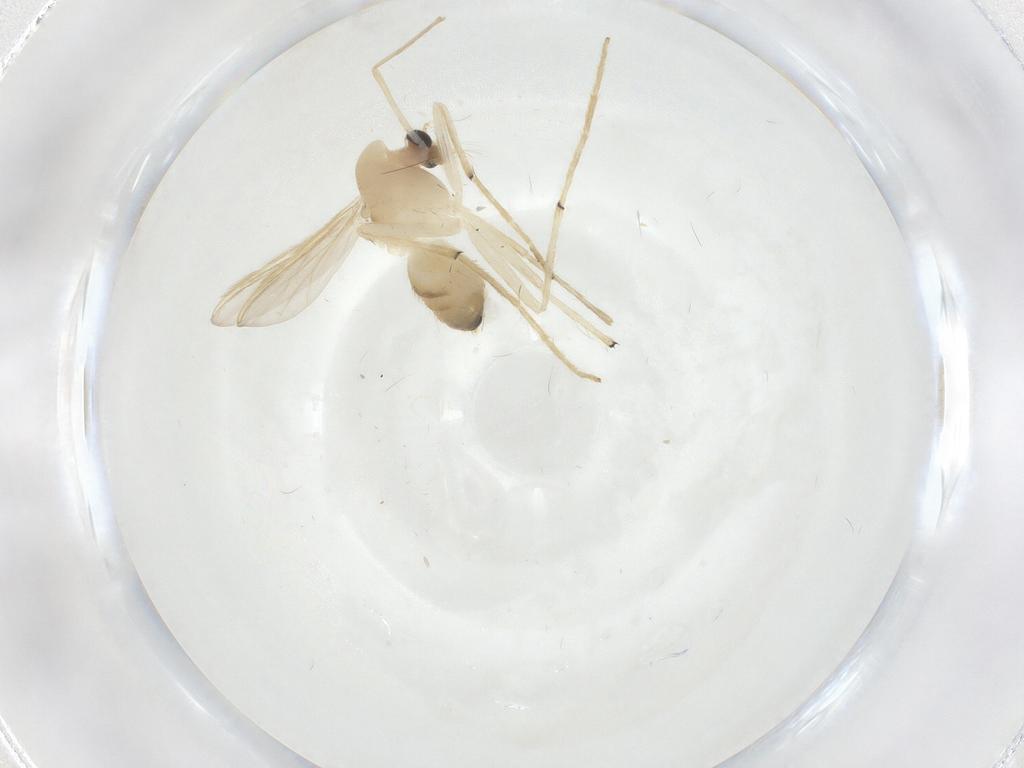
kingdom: Animalia
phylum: Arthropoda
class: Insecta
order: Diptera
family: Chironomidae
